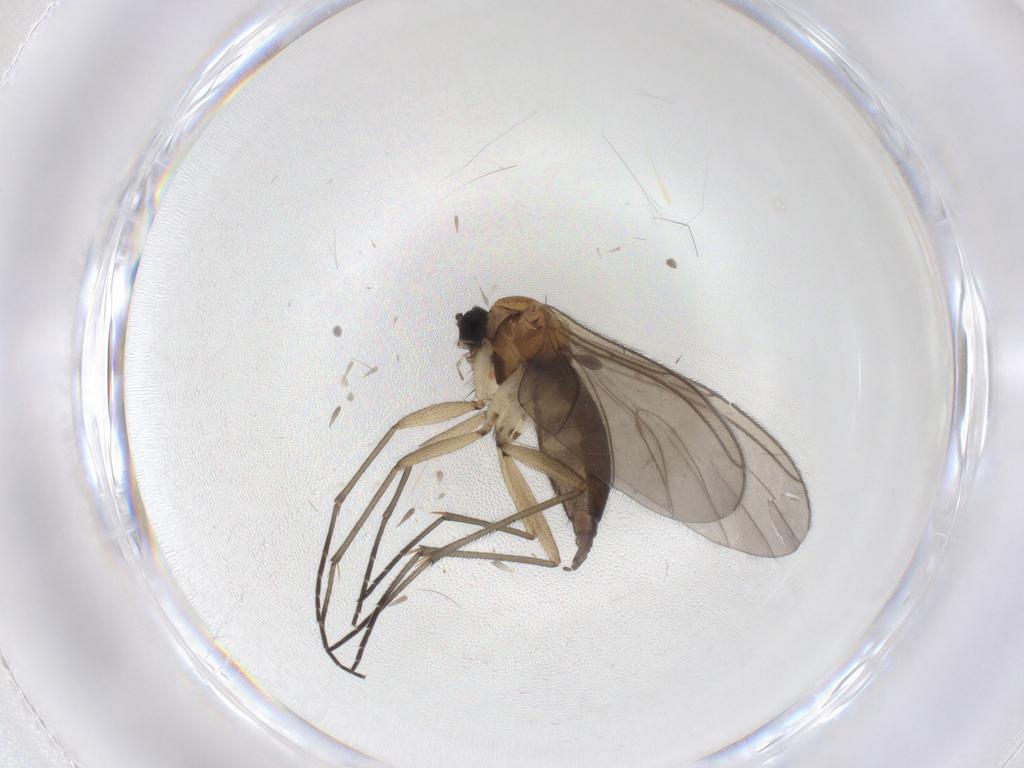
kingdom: Animalia
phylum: Arthropoda
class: Insecta
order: Diptera
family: Sciaridae
